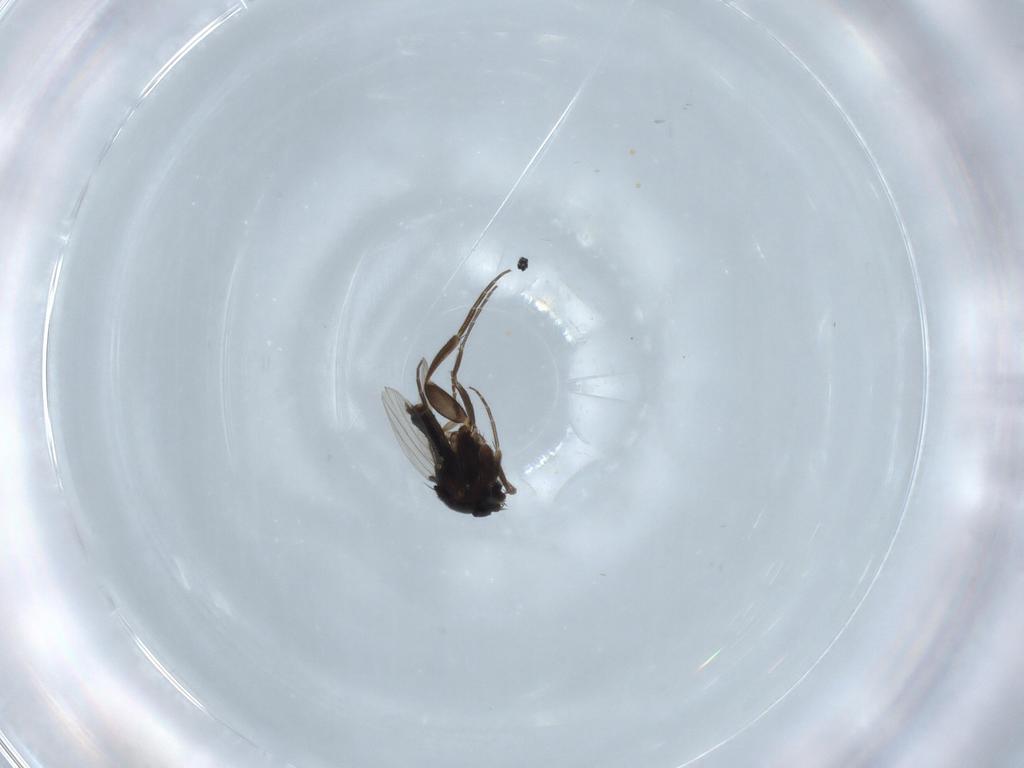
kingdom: Animalia
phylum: Arthropoda
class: Insecta
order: Diptera
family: Phoridae
